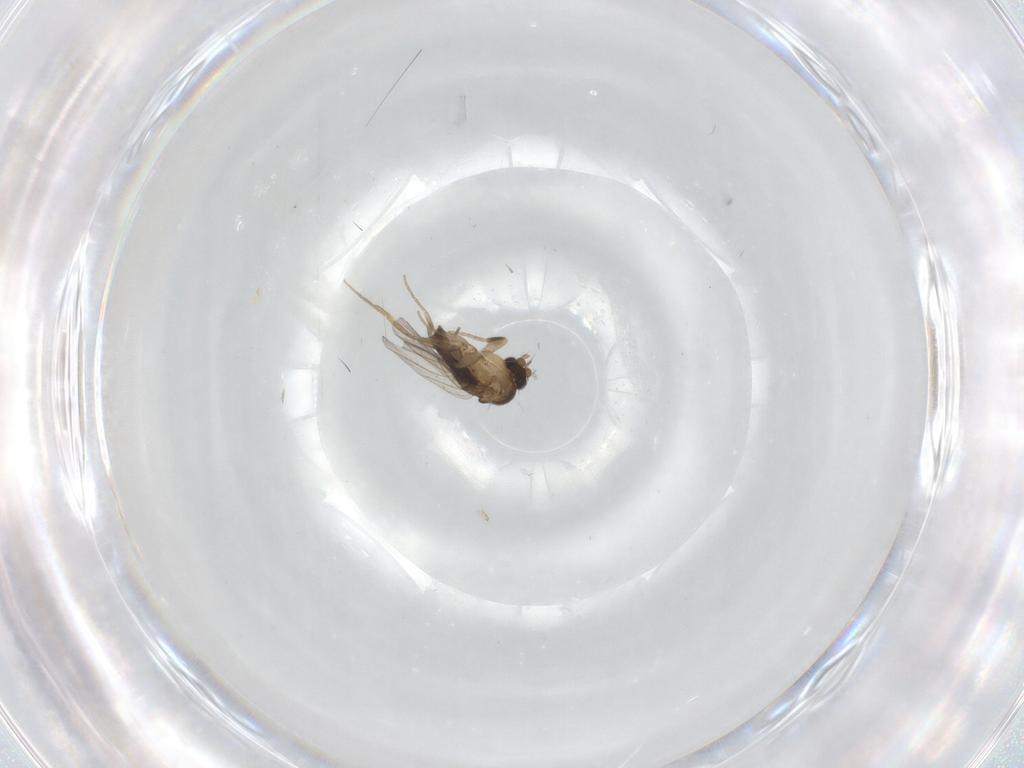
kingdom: Animalia
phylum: Arthropoda
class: Insecta
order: Diptera
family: Phoridae
